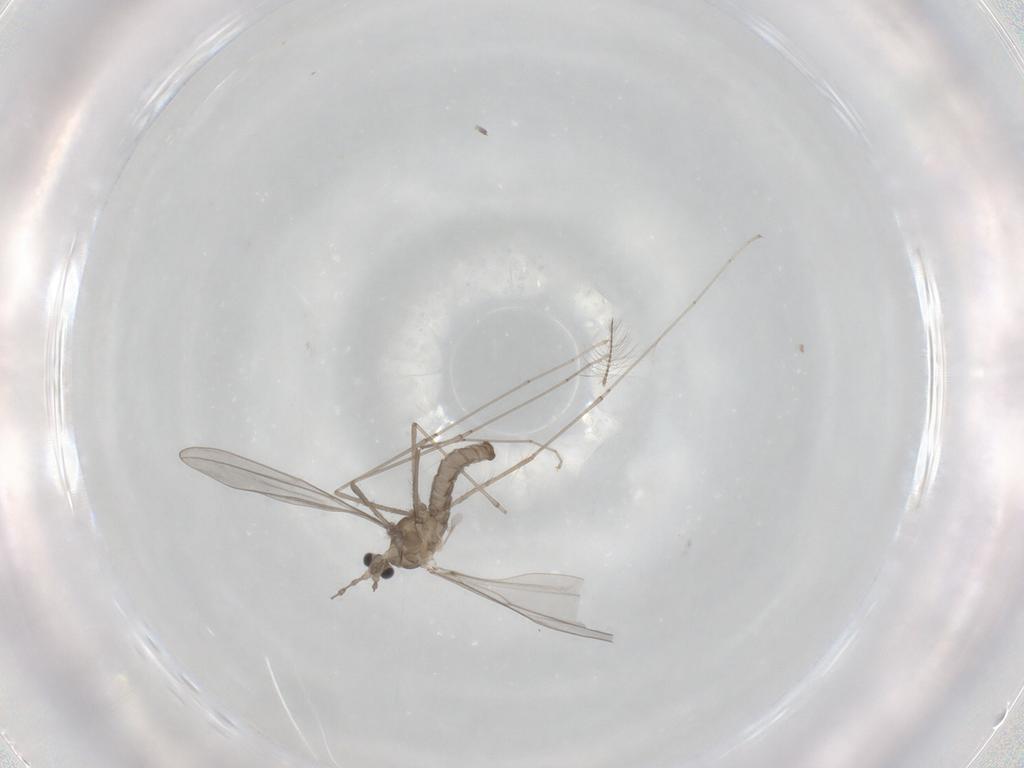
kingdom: Animalia
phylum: Arthropoda
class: Insecta
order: Diptera
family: Cecidomyiidae
